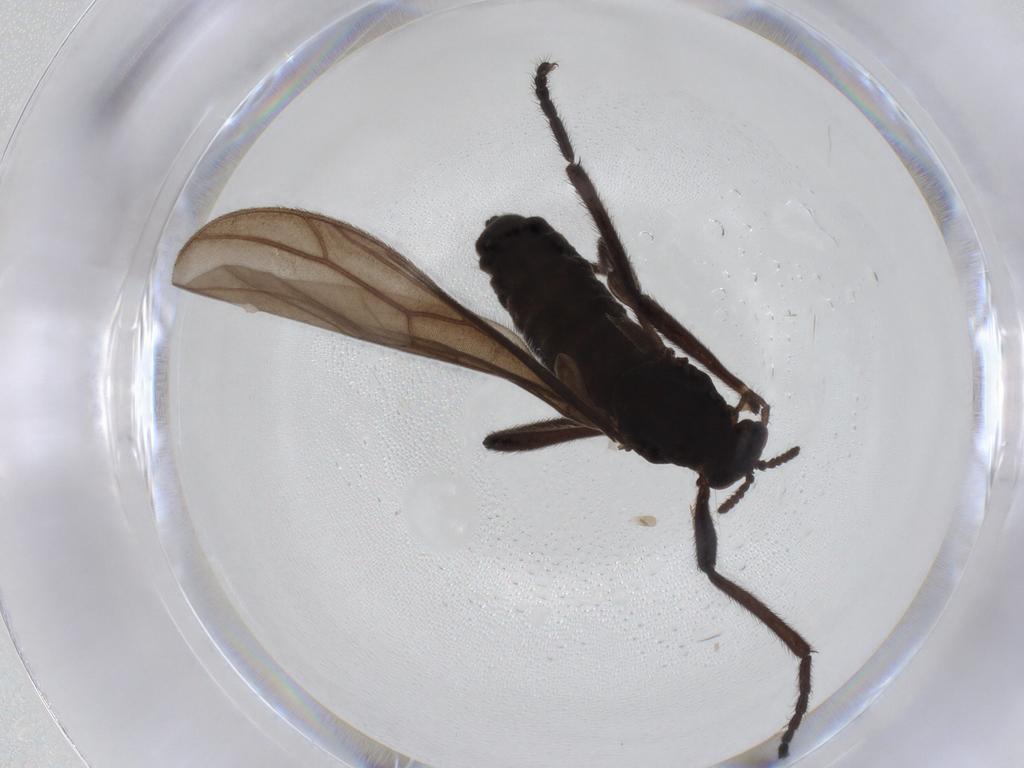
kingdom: Animalia
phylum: Arthropoda
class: Insecta
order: Diptera
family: Bibionidae
